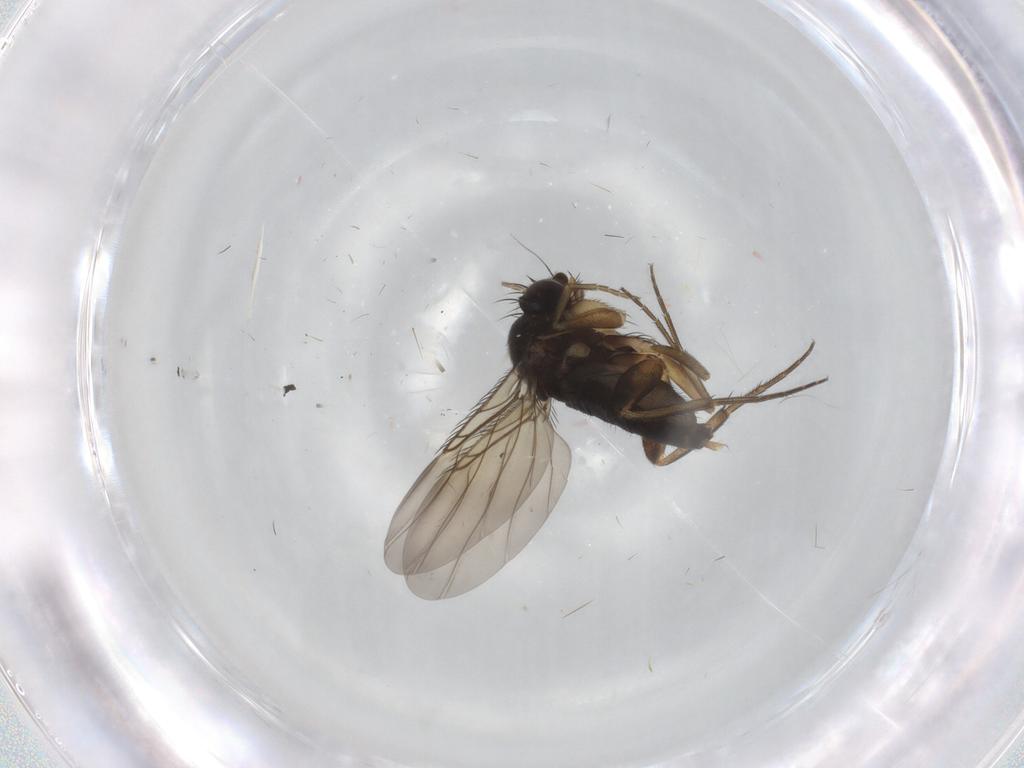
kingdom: Animalia
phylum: Arthropoda
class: Insecta
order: Diptera
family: Phoridae
